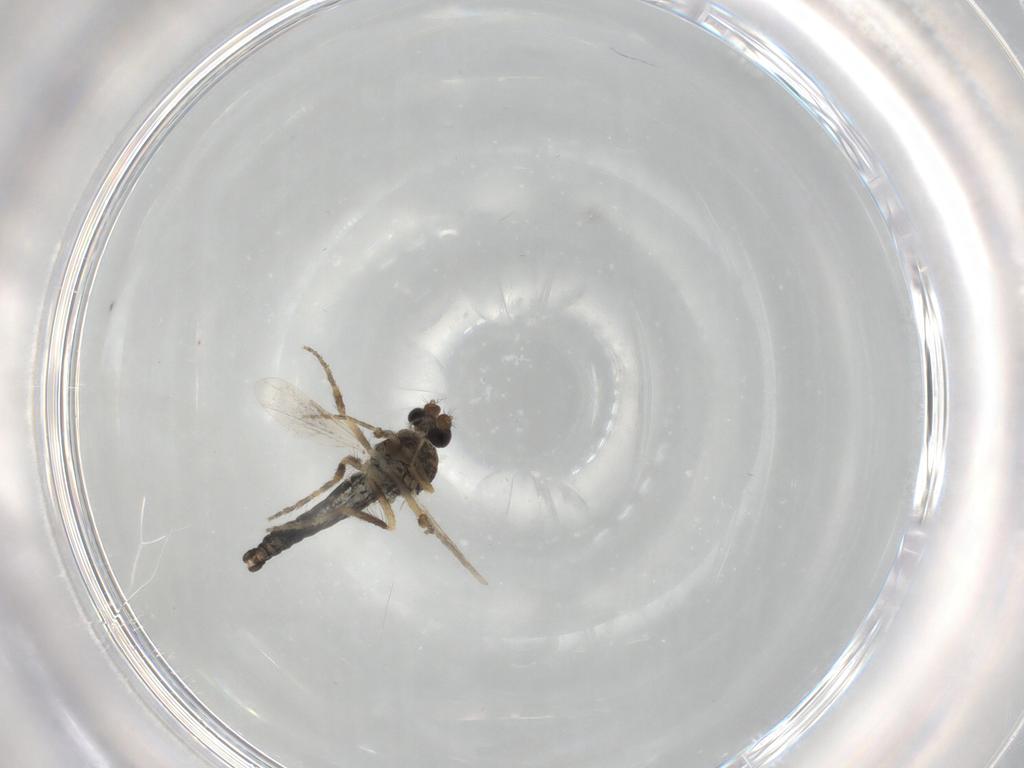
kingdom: Animalia
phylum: Arthropoda
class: Insecta
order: Diptera
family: Ceratopogonidae
